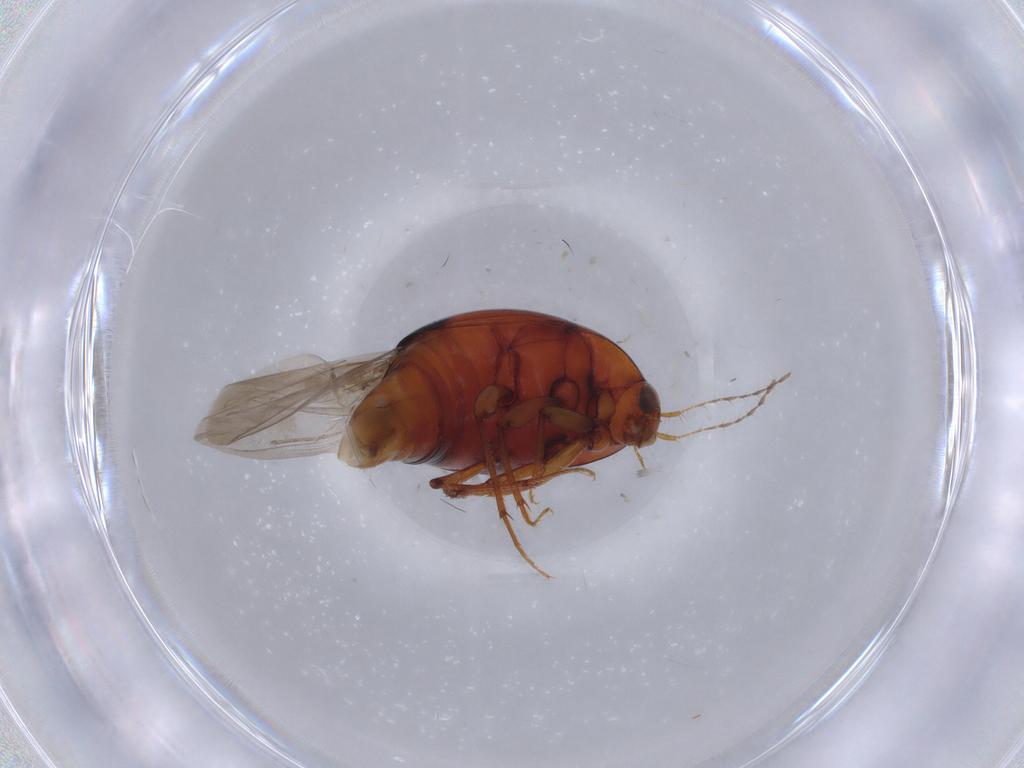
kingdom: Animalia
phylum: Arthropoda
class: Insecta
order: Coleoptera
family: Staphylinidae
